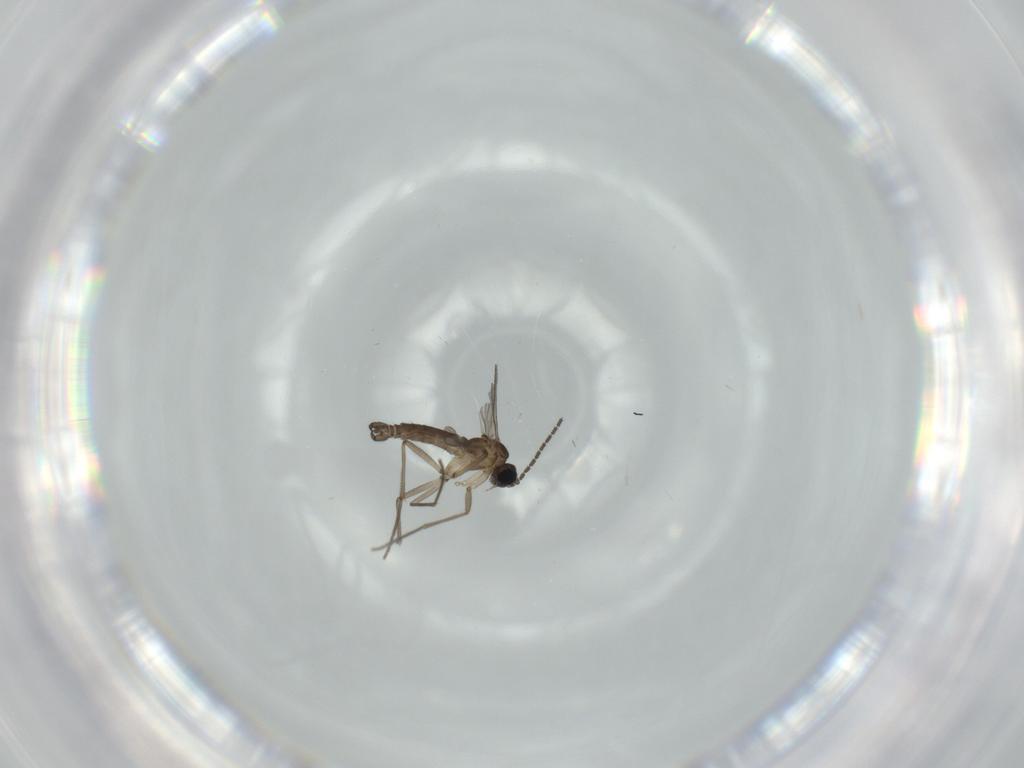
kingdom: Animalia
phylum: Arthropoda
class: Insecta
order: Diptera
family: Sciaridae
